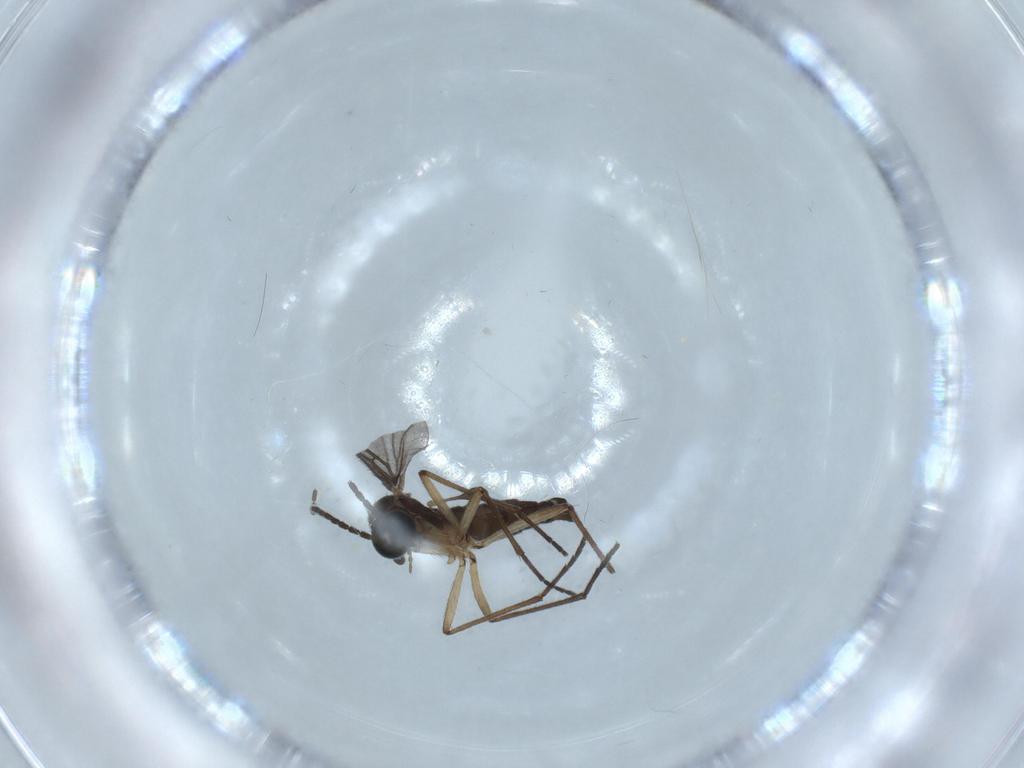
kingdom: Animalia
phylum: Arthropoda
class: Insecta
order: Diptera
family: Sciaridae
